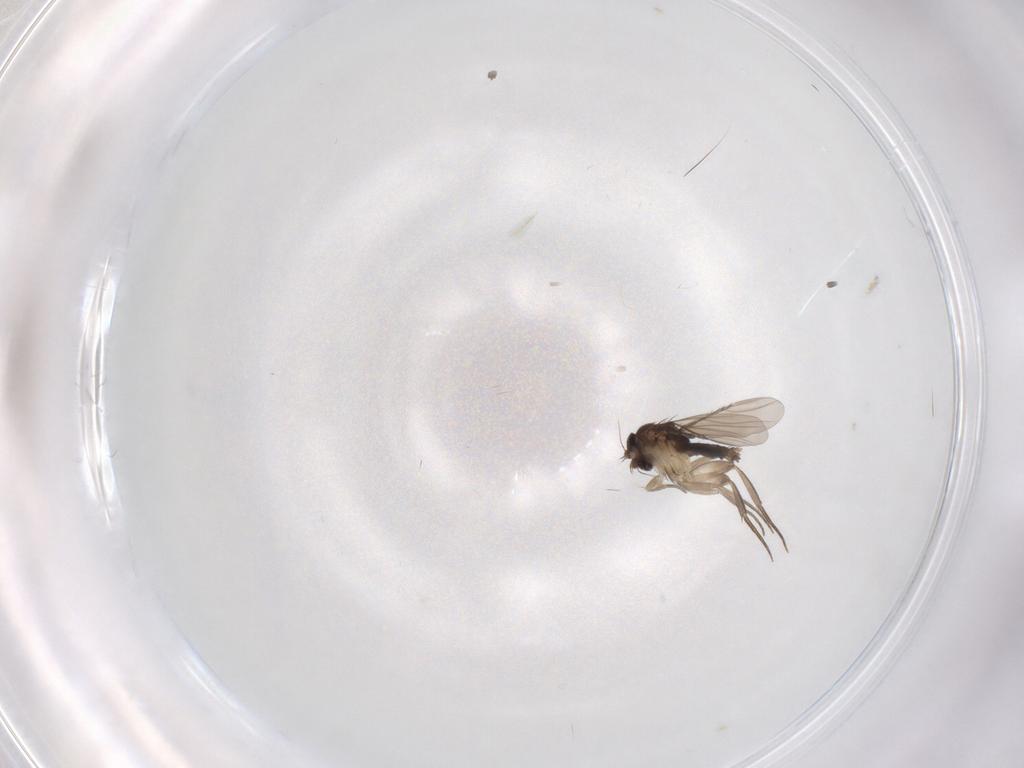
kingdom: Animalia
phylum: Arthropoda
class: Insecta
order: Diptera
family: Phoridae
